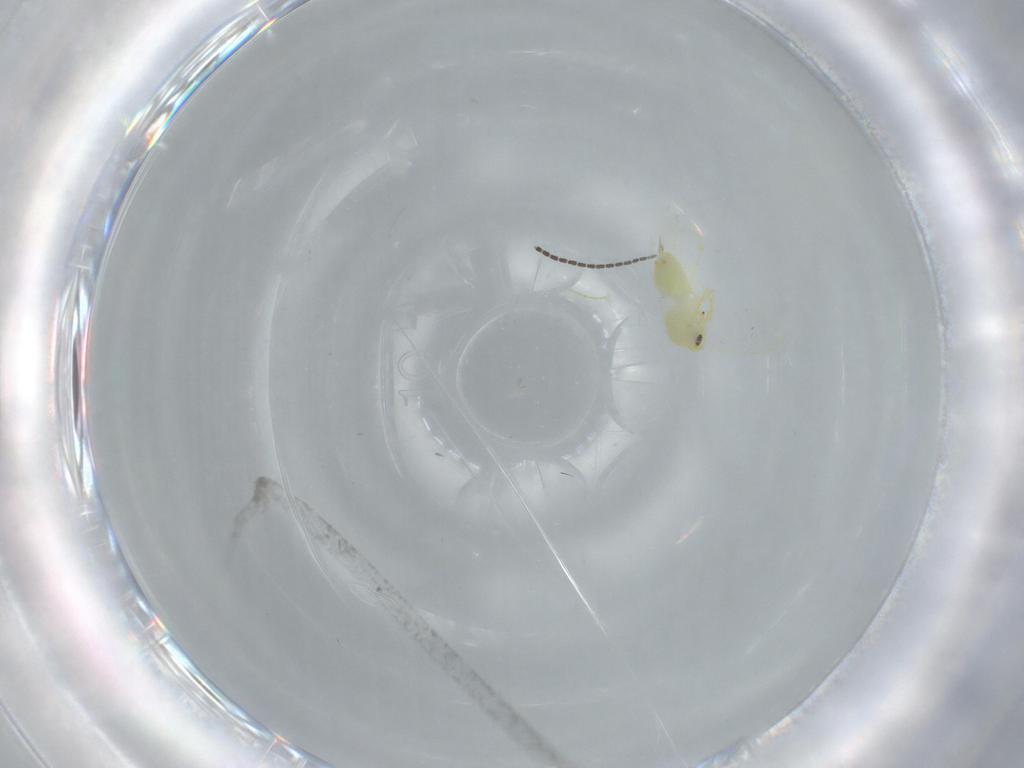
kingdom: Animalia
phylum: Arthropoda
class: Insecta
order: Hemiptera
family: Aleyrodidae
